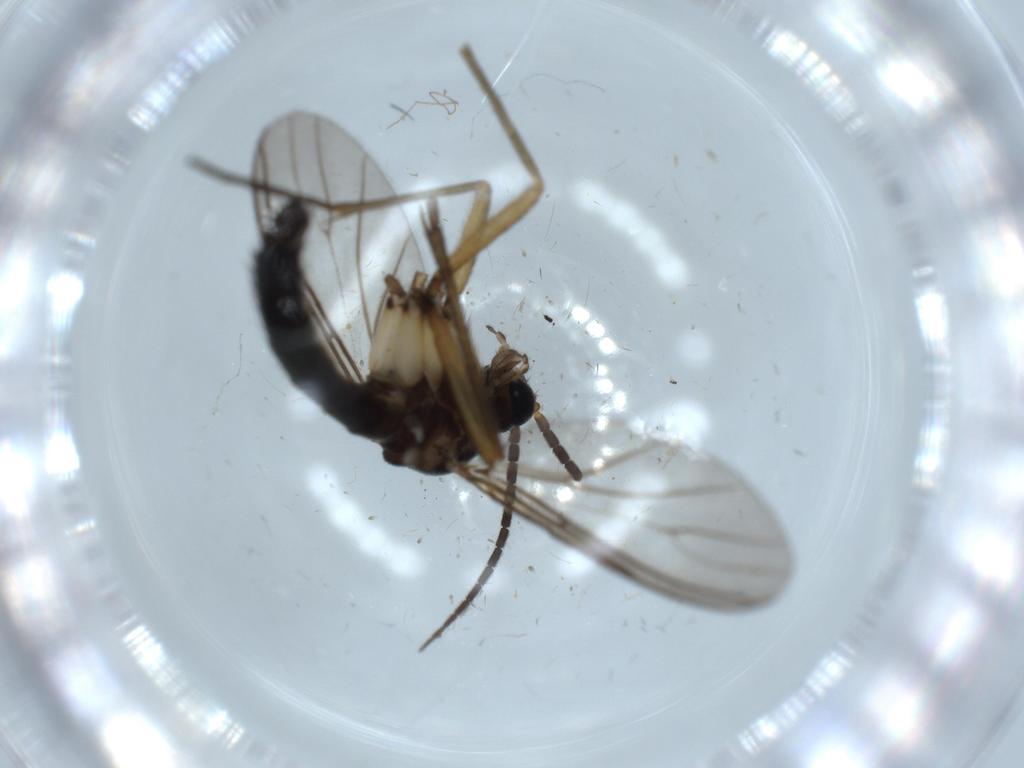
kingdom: Animalia
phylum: Arthropoda
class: Insecta
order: Diptera
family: Sciaridae
